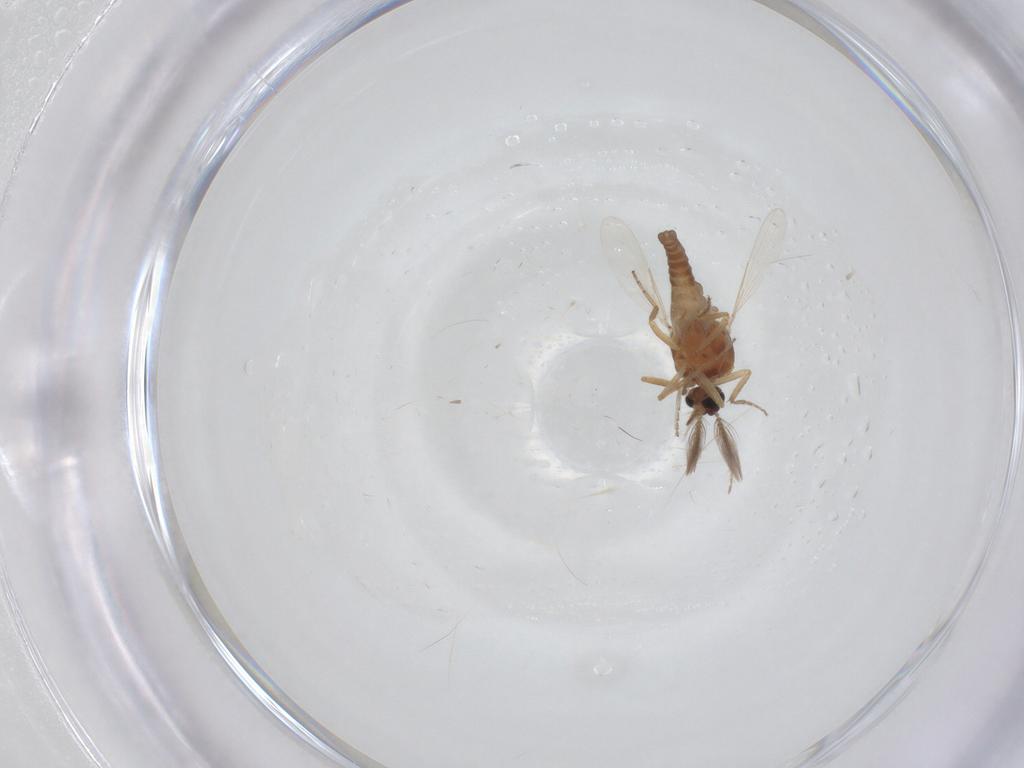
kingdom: Animalia
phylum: Arthropoda
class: Insecta
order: Diptera
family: Ceratopogonidae
